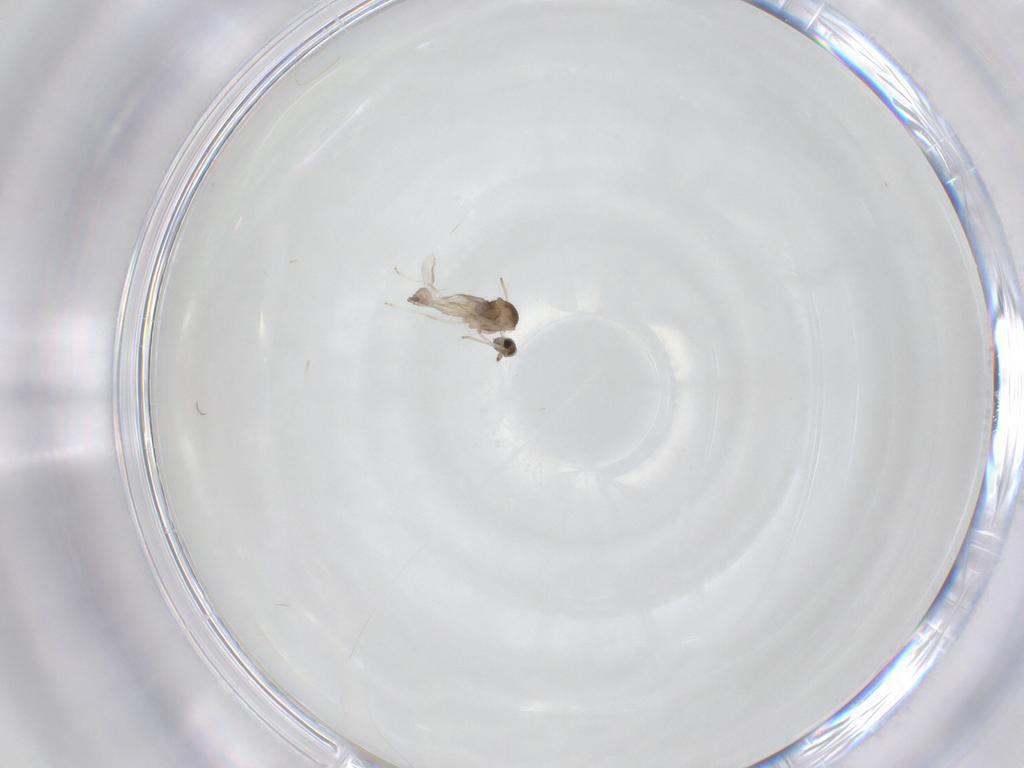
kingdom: Animalia
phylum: Arthropoda
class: Insecta
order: Diptera
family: Cecidomyiidae
